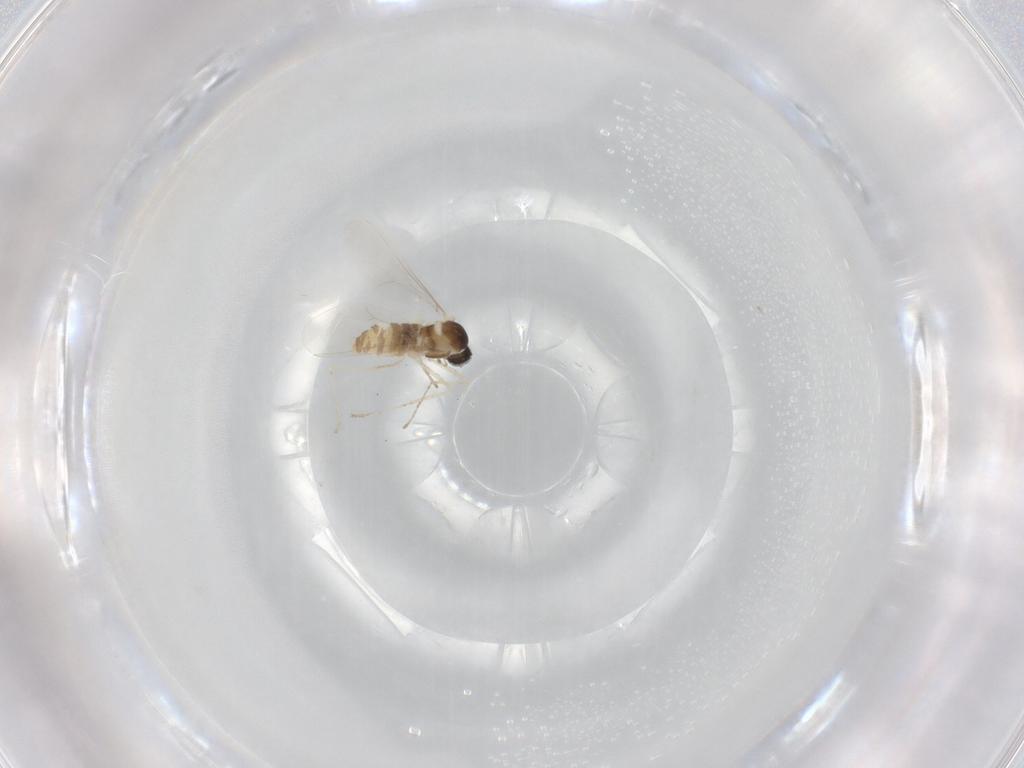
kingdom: Animalia
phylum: Arthropoda
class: Insecta
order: Diptera
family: Cecidomyiidae
